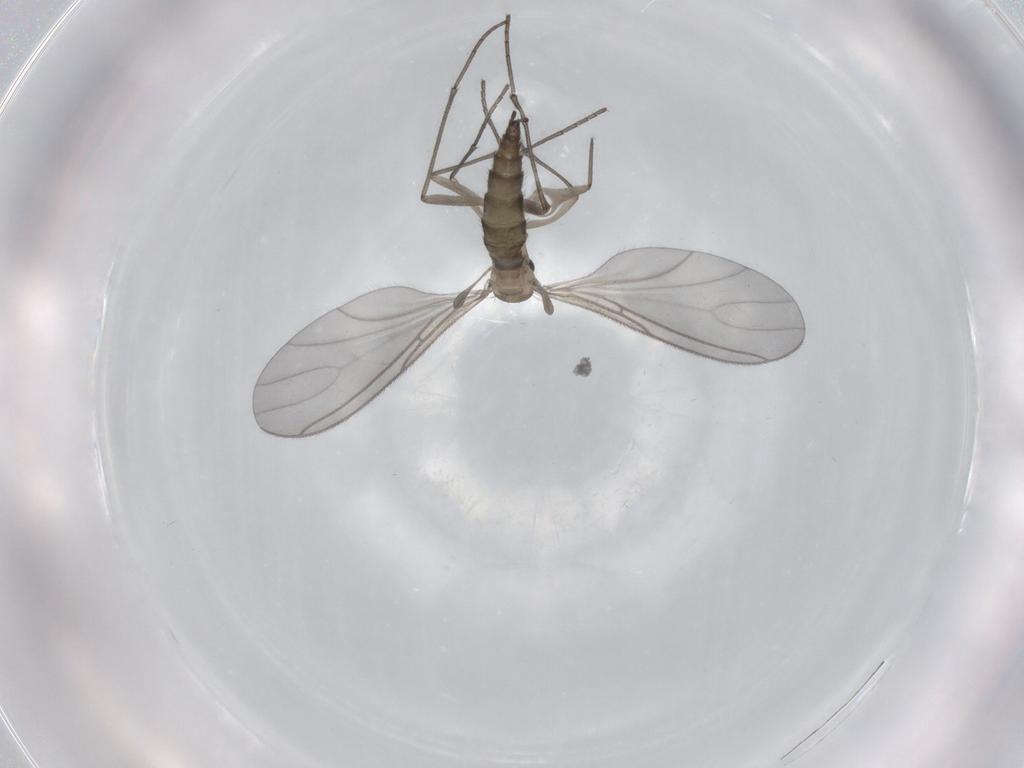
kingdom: Animalia
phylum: Arthropoda
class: Insecta
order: Diptera
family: Sciaridae
